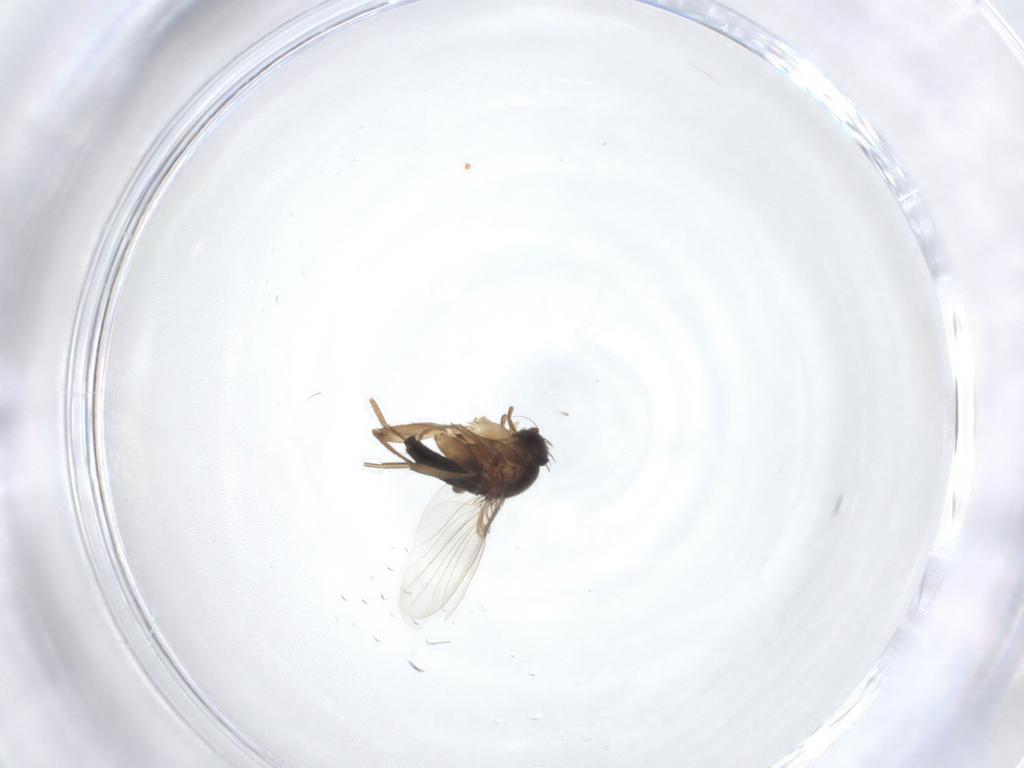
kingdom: Animalia
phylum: Arthropoda
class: Insecta
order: Diptera
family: Phoridae
